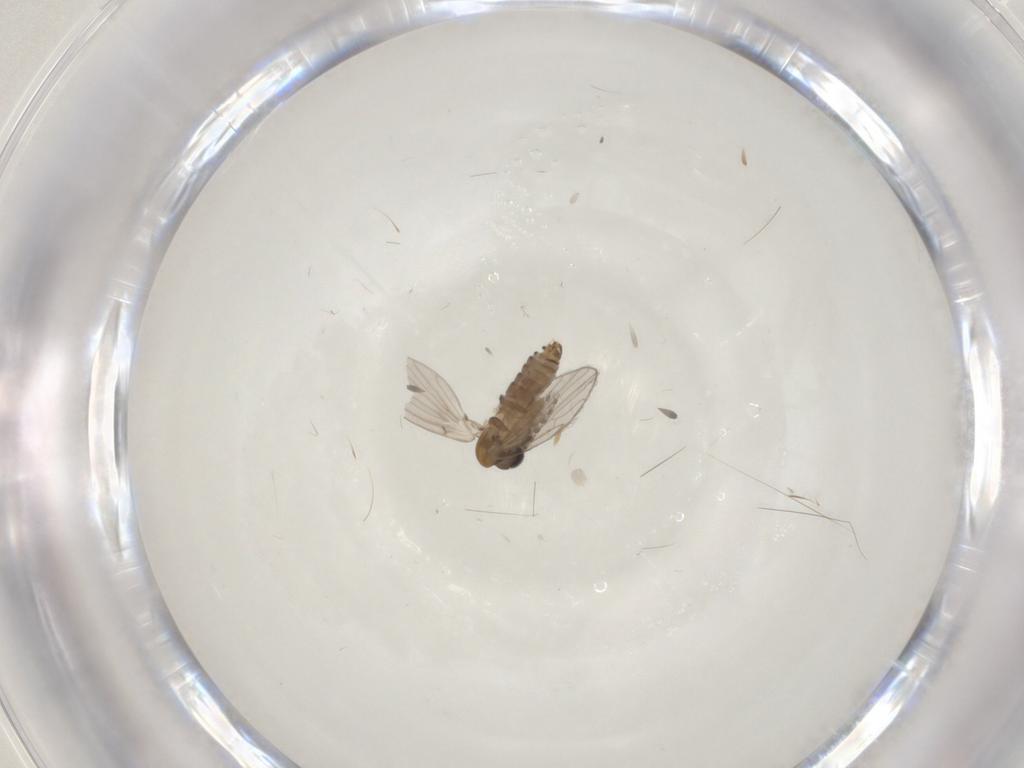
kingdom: Animalia
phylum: Arthropoda
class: Insecta
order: Diptera
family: Psychodidae
